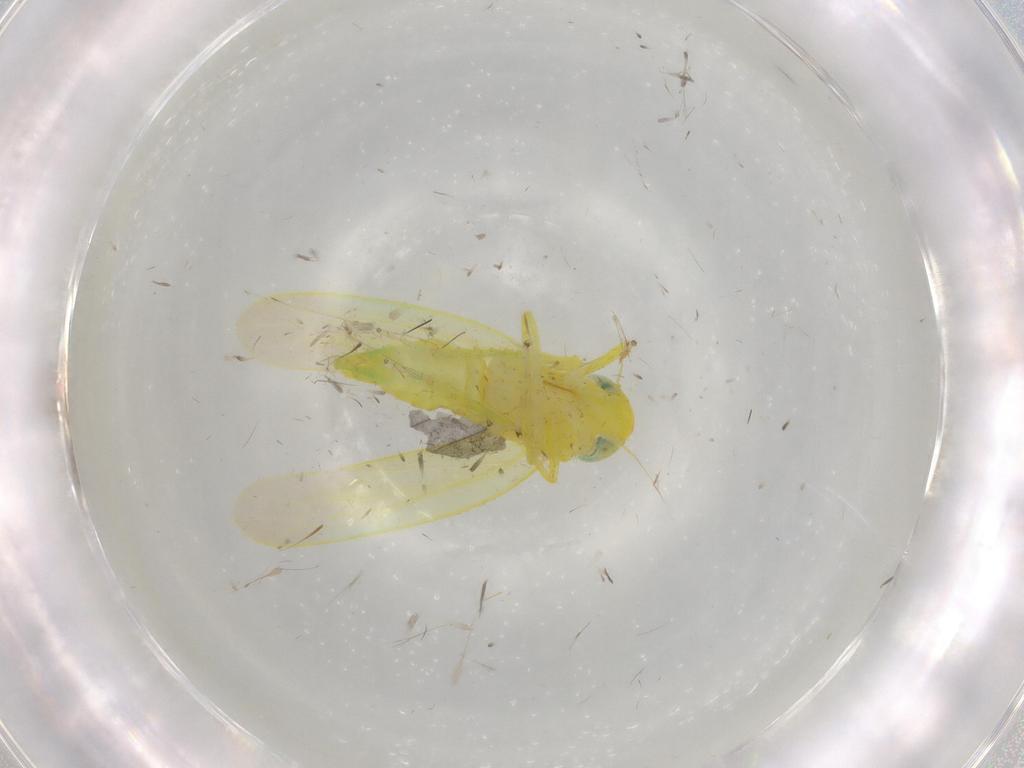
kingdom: Animalia
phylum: Arthropoda
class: Insecta
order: Hemiptera
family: Cicadellidae
